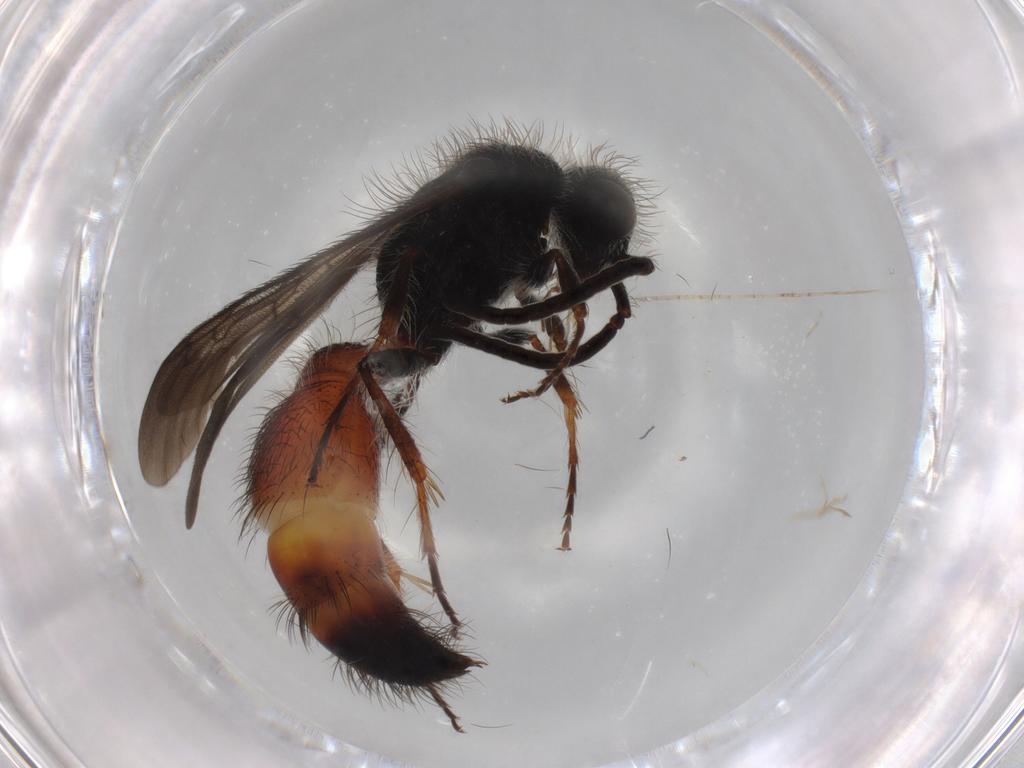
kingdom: Animalia
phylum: Arthropoda
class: Insecta
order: Hymenoptera
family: Mutillidae
